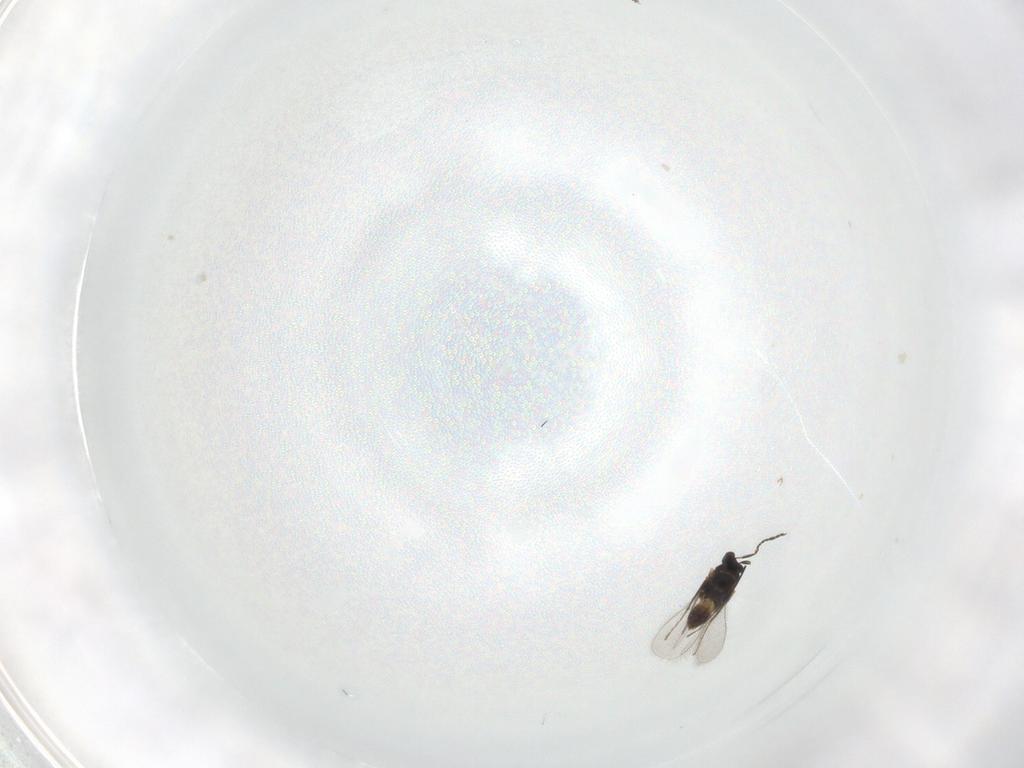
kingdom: Animalia
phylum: Arthropoda
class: Insecta
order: Hymenoptera
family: Mymaridae
